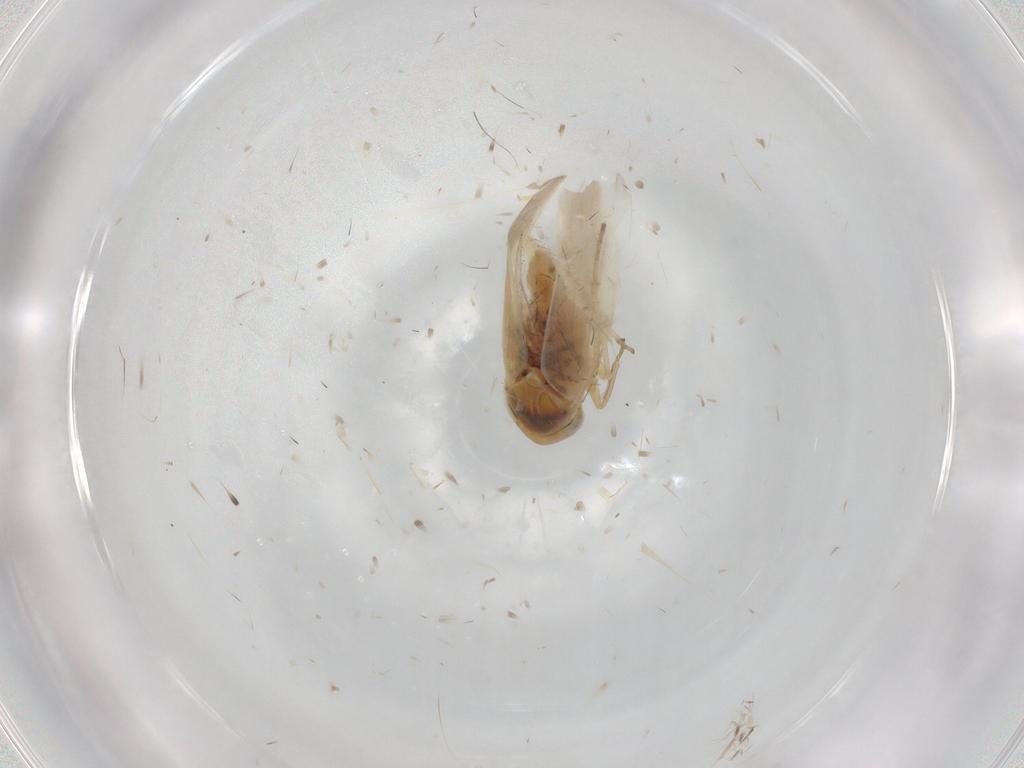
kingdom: Animalia
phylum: Arthropoda
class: Insecta
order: Hemiptera
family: Cicadellidae
